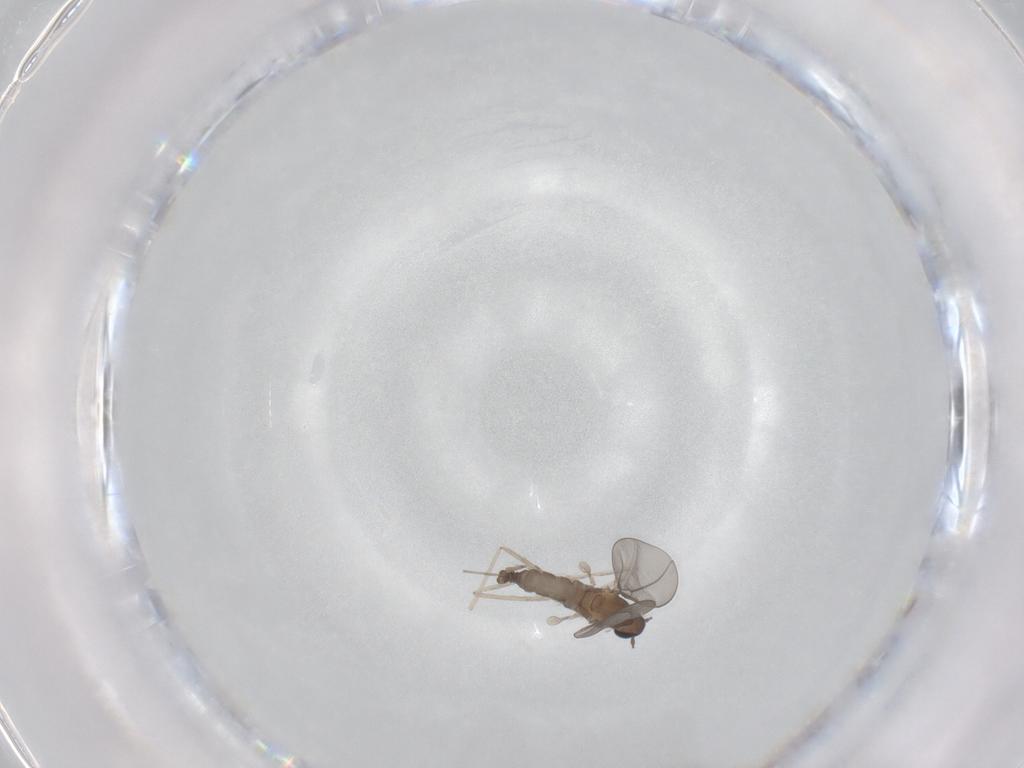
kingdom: Animalia
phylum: Arthropoda
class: Insecta
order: Diptera
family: Cecidomyiidae
